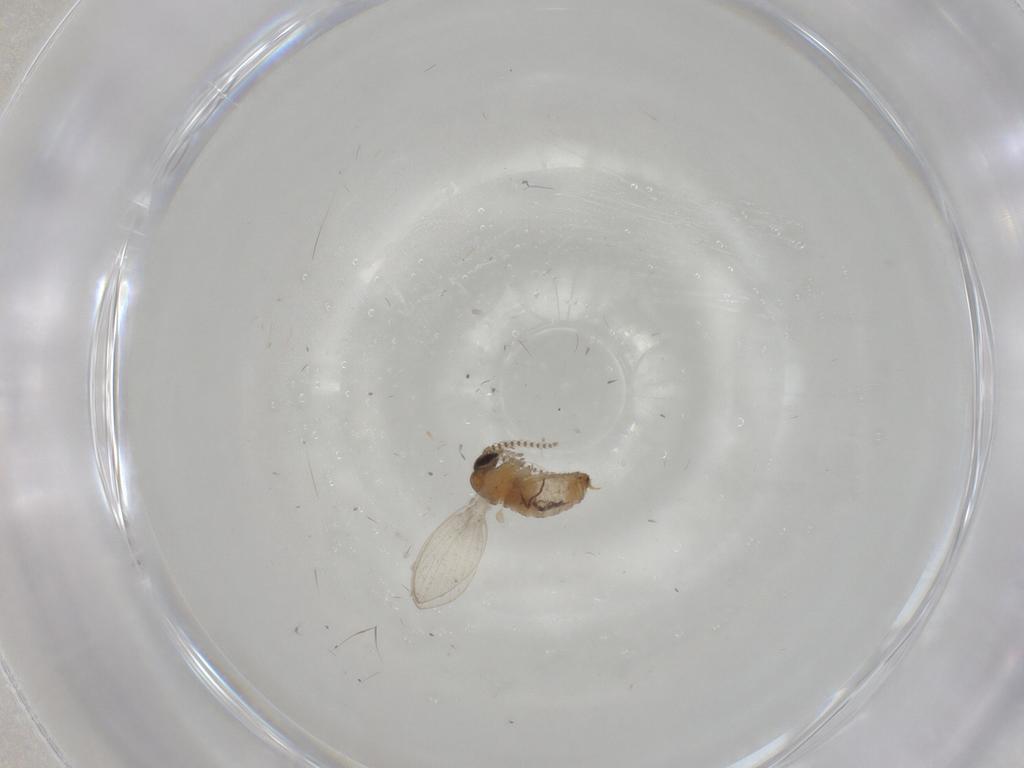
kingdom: Animalia
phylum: Arthropoda
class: Insecta
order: Diptera
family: Psychodidae
